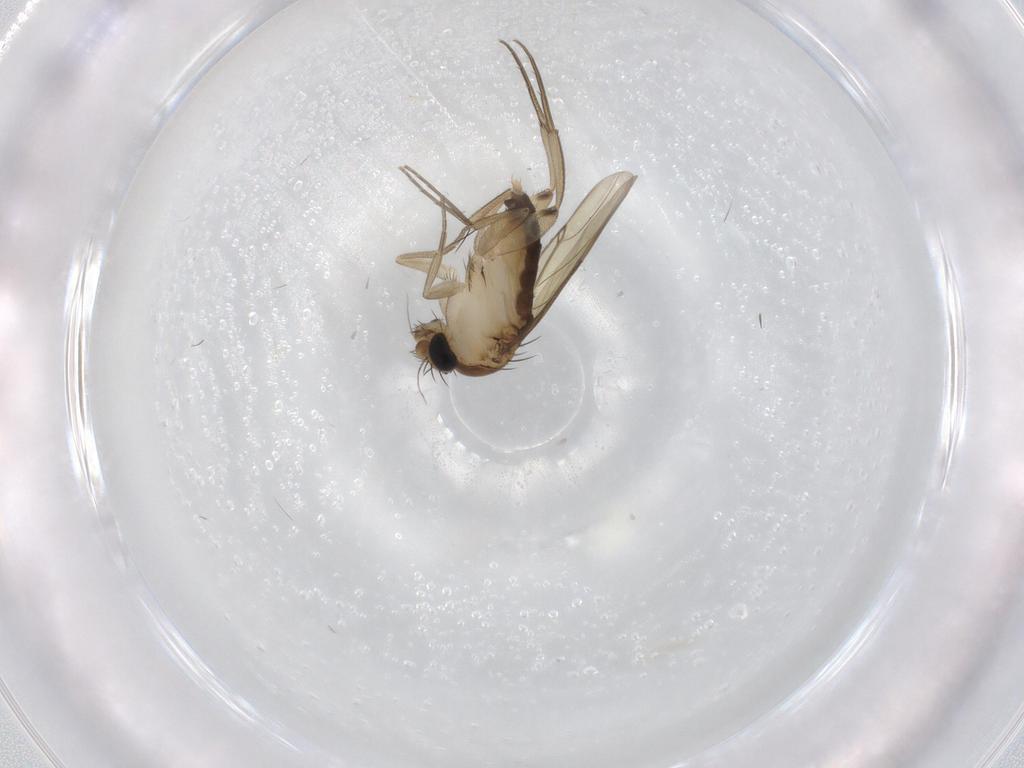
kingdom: Animalia
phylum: Arthropoda
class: Insecta
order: Diptera
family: Phoridae
